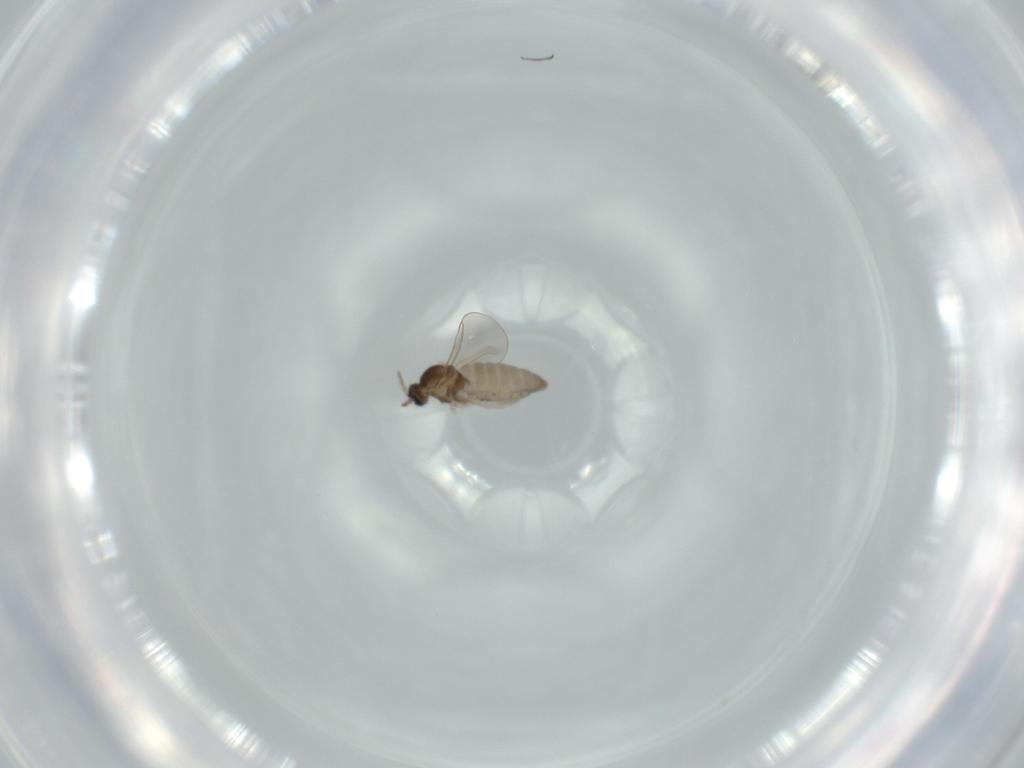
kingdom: Animalia
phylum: Arthropoda
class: Insecta
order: Diptera
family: Cecidomyiidae
